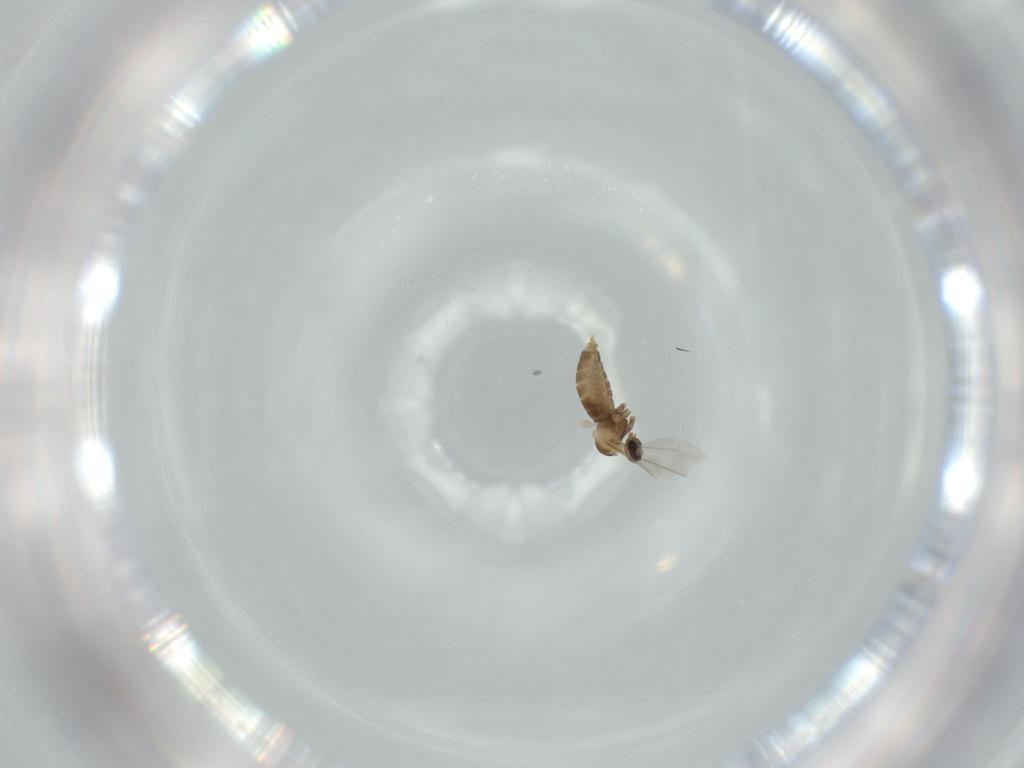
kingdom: Animalia
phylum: Arthropoda
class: Insecta
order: Diptera
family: Cecidomyiidae
